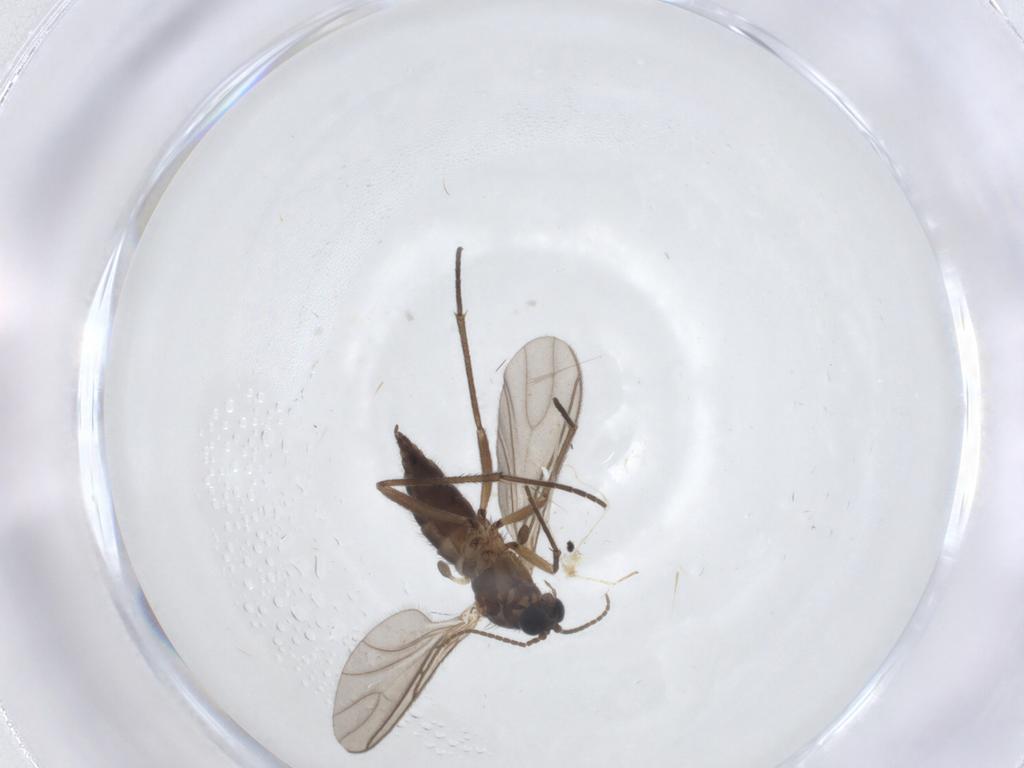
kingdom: Animalia
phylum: Arthropoda
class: Insecta
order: Diptera
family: Sciaridae
